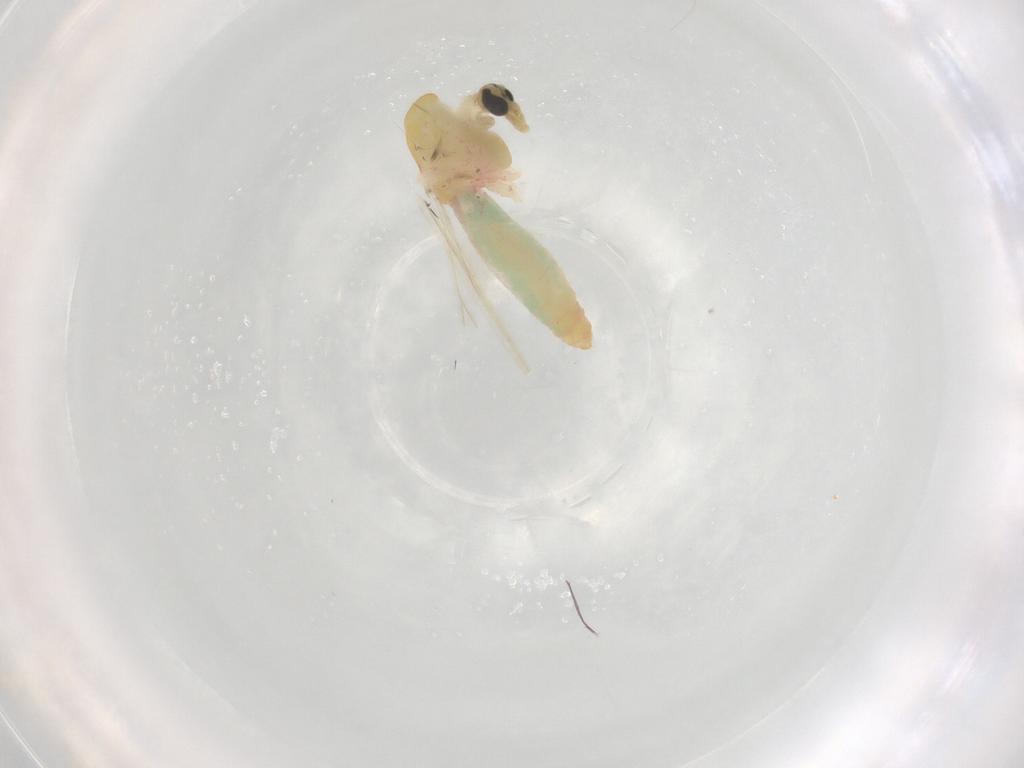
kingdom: Animalia
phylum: Arthropoda
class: Insecta
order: Diptera
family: Chironomidae
